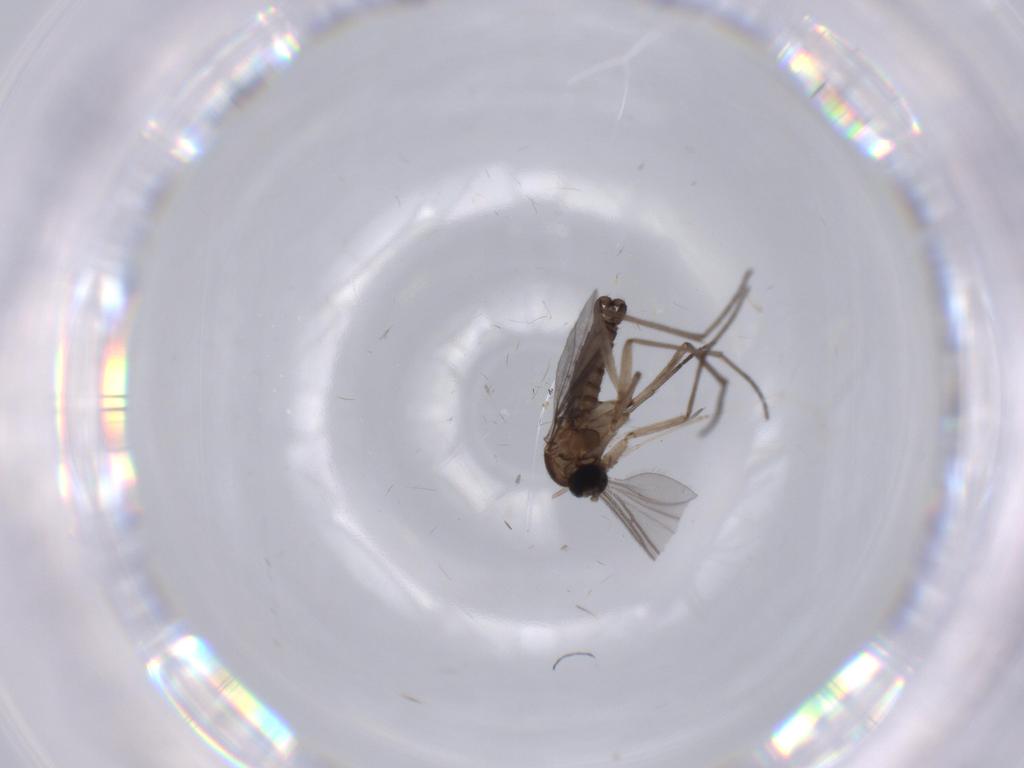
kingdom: Animalia
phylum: Arthropoda
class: Insecta
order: Diptera
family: Sciaridae
